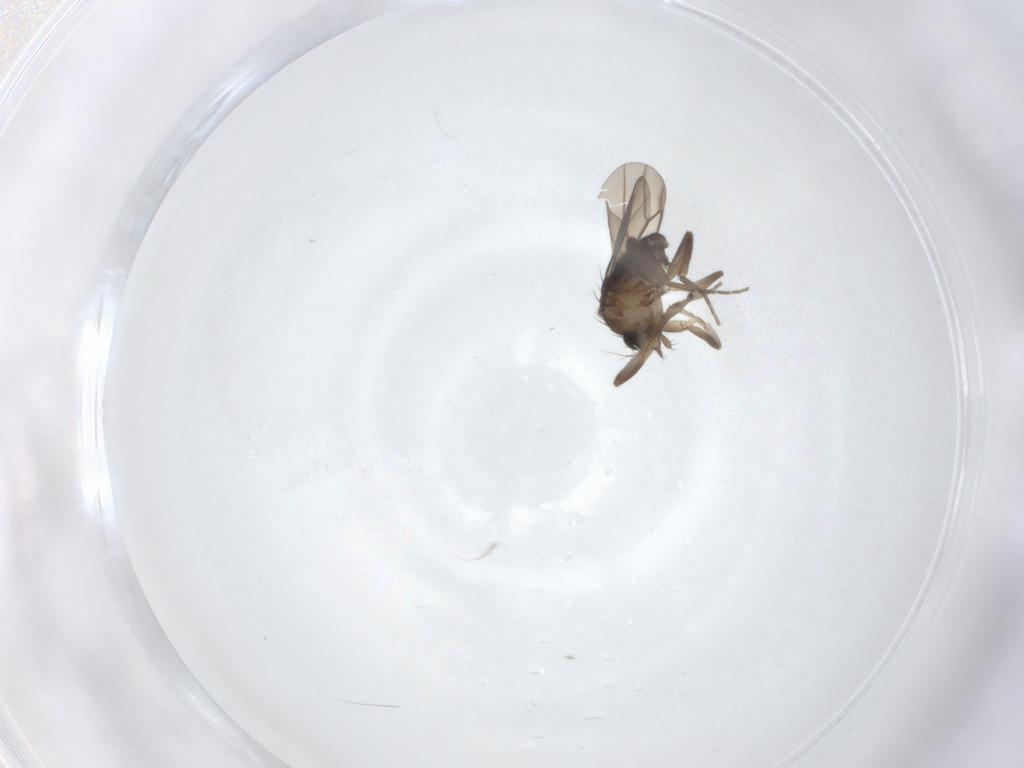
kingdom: Animalia
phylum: Arthropoda
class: Insecta
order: Diptera
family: Phoridae
